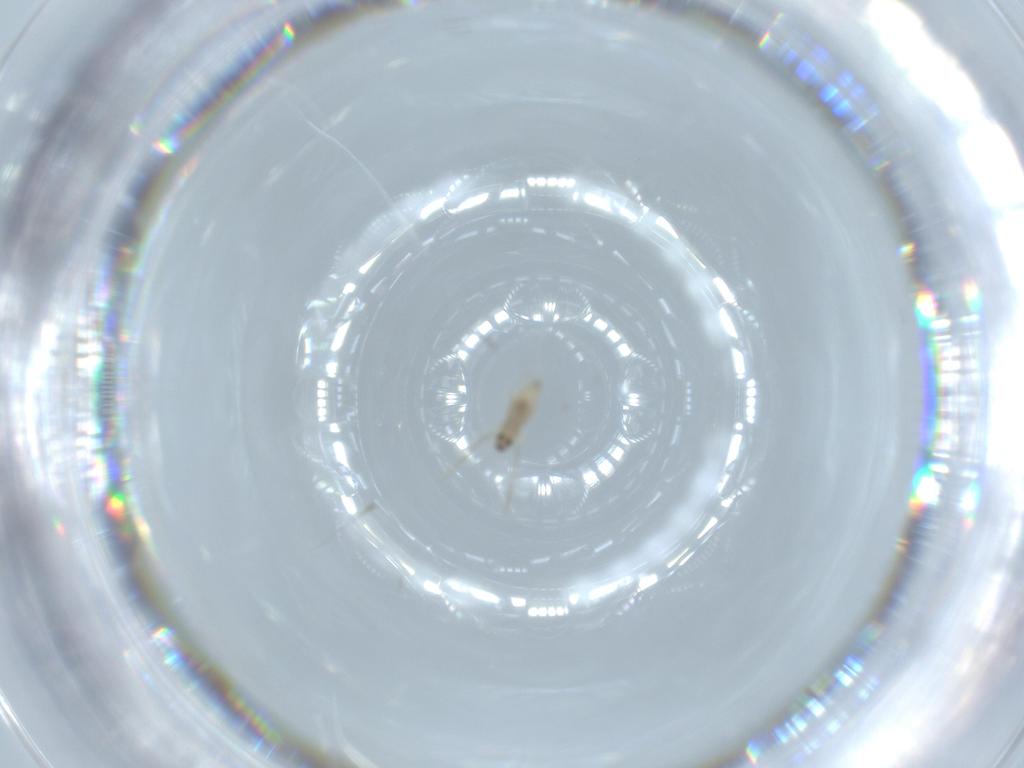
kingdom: Animalia
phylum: Arthropoda
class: Insecta
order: Diptera
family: Cecidomyiidae
